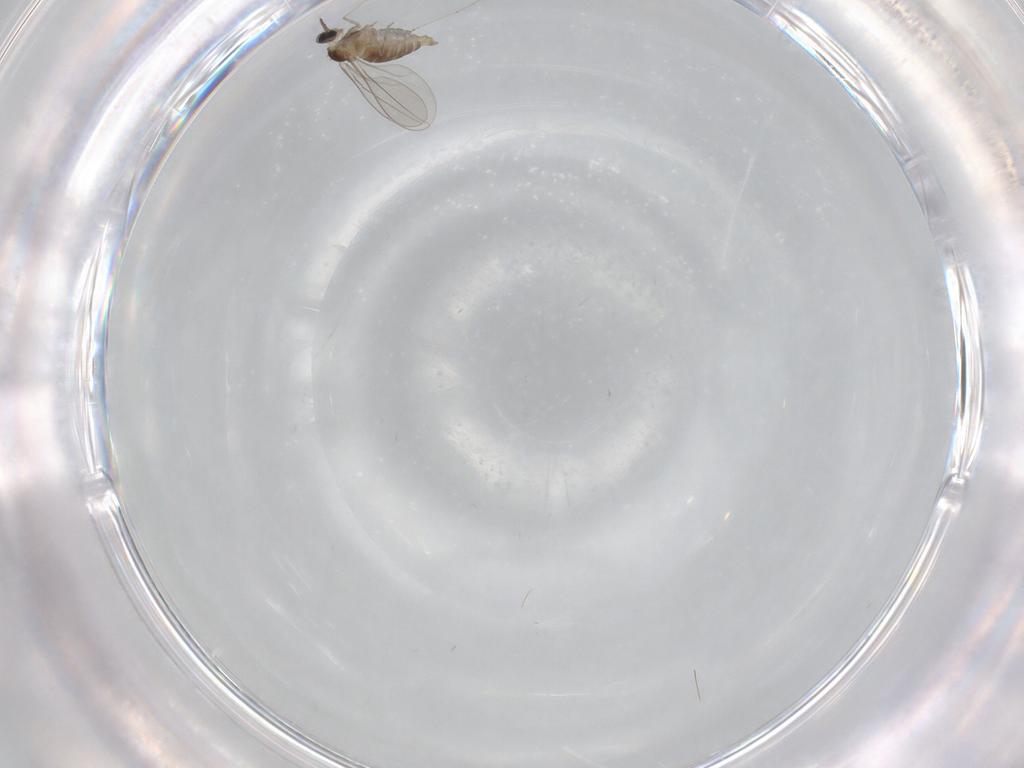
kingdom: Animalia
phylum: Arthropoda
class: Insecta
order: Diptera
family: Cecidomyiidae
